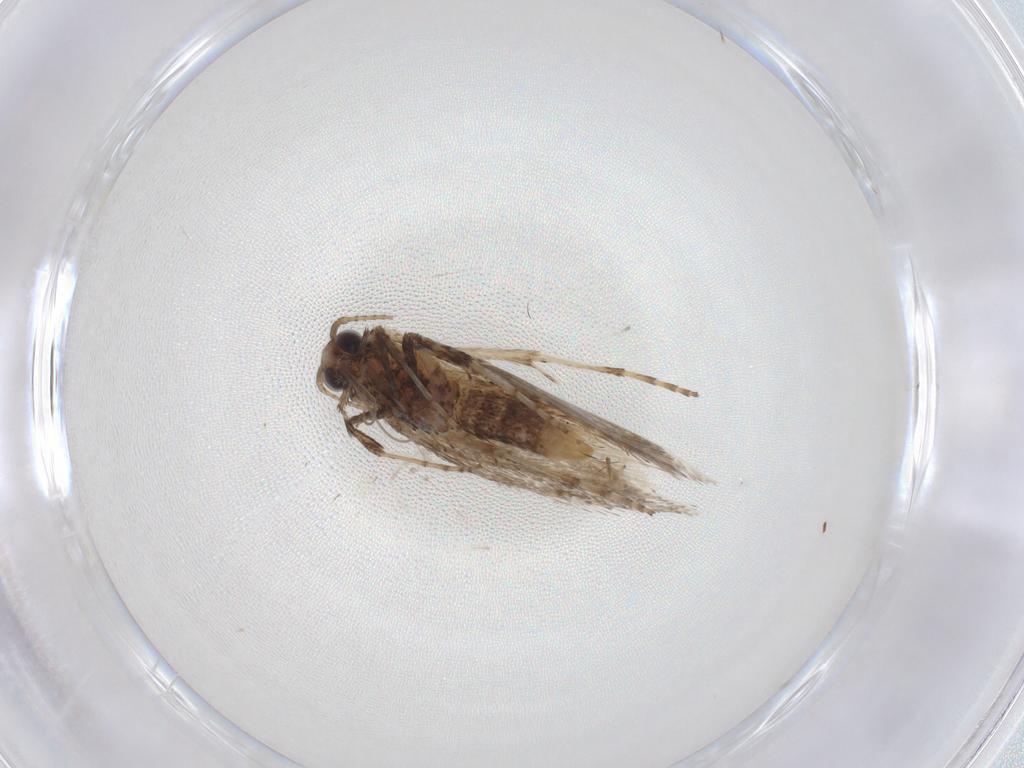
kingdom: Animalia
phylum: Arthropoda
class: Insecta
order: Lepidoptera
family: Gracillariidae
